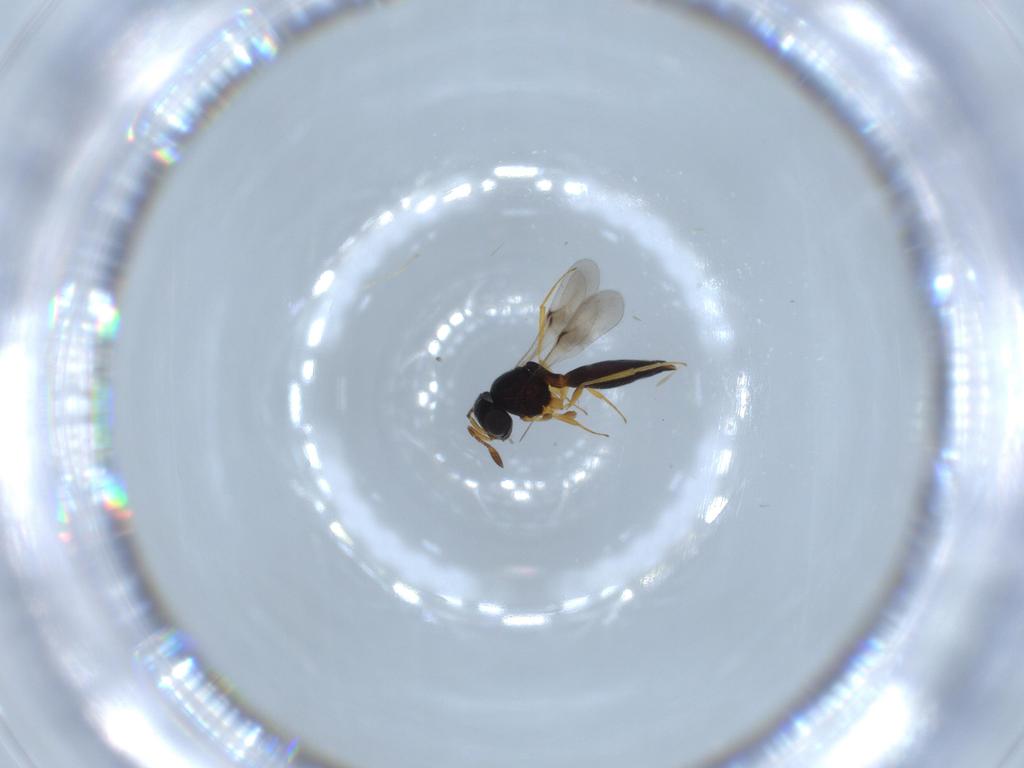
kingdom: Animalia
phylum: Arthropoda
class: Insecta
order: Hymenoptera
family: Scelionidae
